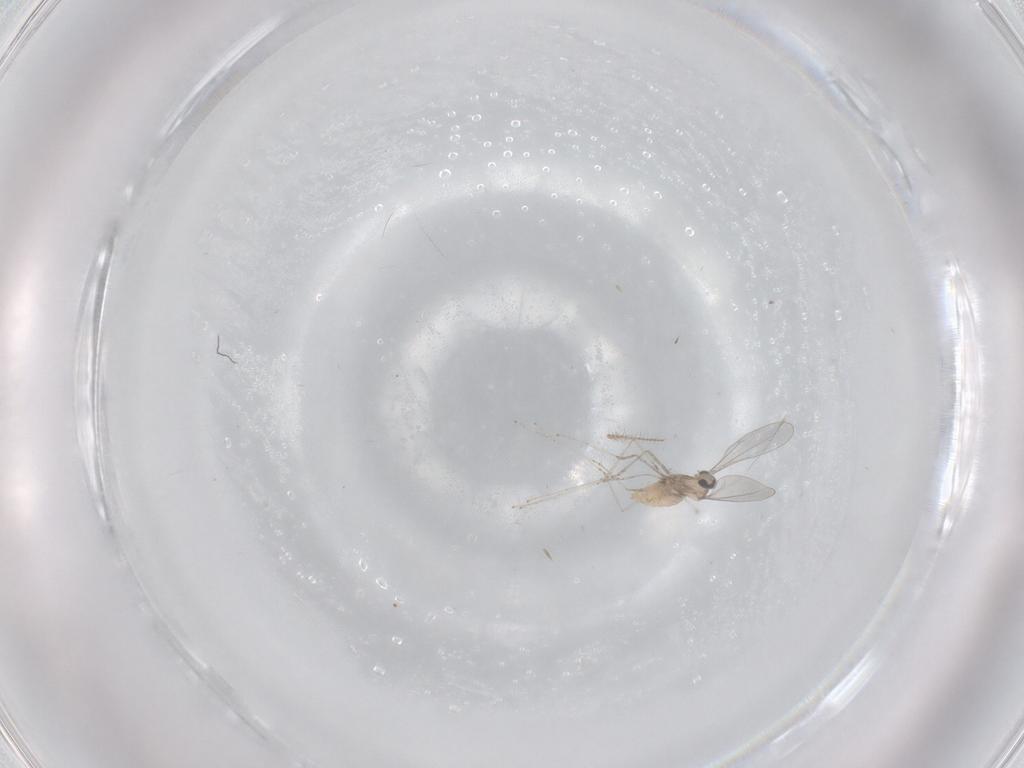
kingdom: Animalia
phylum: Arthropoda
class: Insecta
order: Diptera
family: Cecidomyiidae
